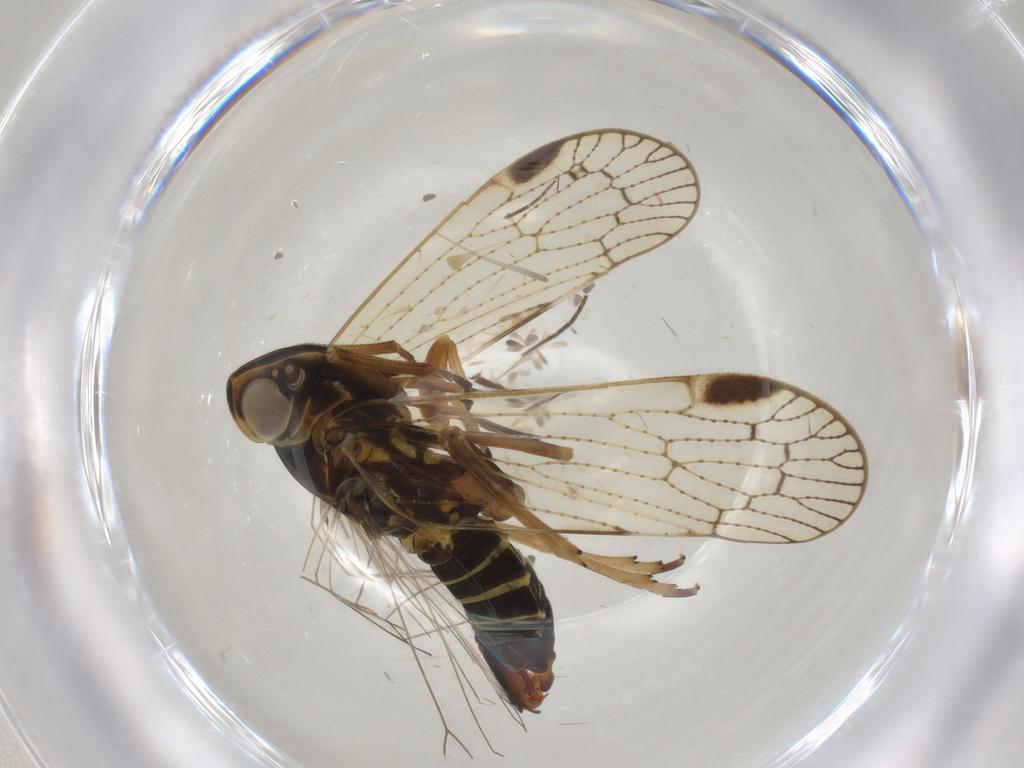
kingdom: Animalia
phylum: Arthropoda
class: Insecta
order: Hemiptera
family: Cixiidae
